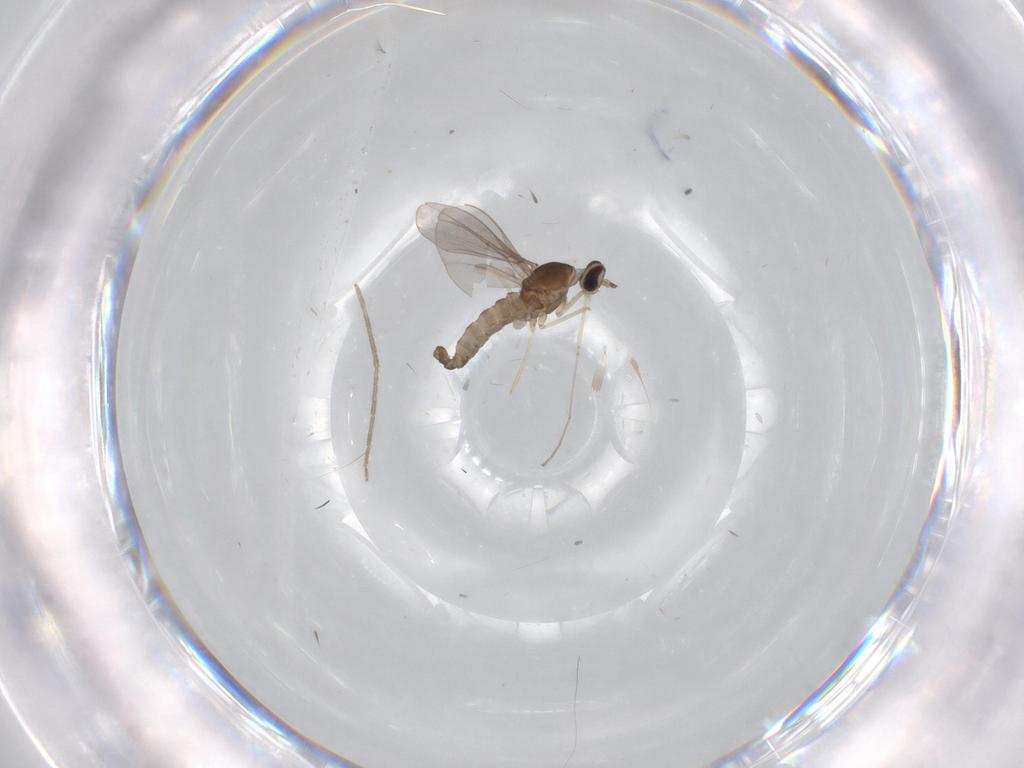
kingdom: Animalia
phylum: Arthropoda
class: Insecta
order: Diptera
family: Chironomidae
